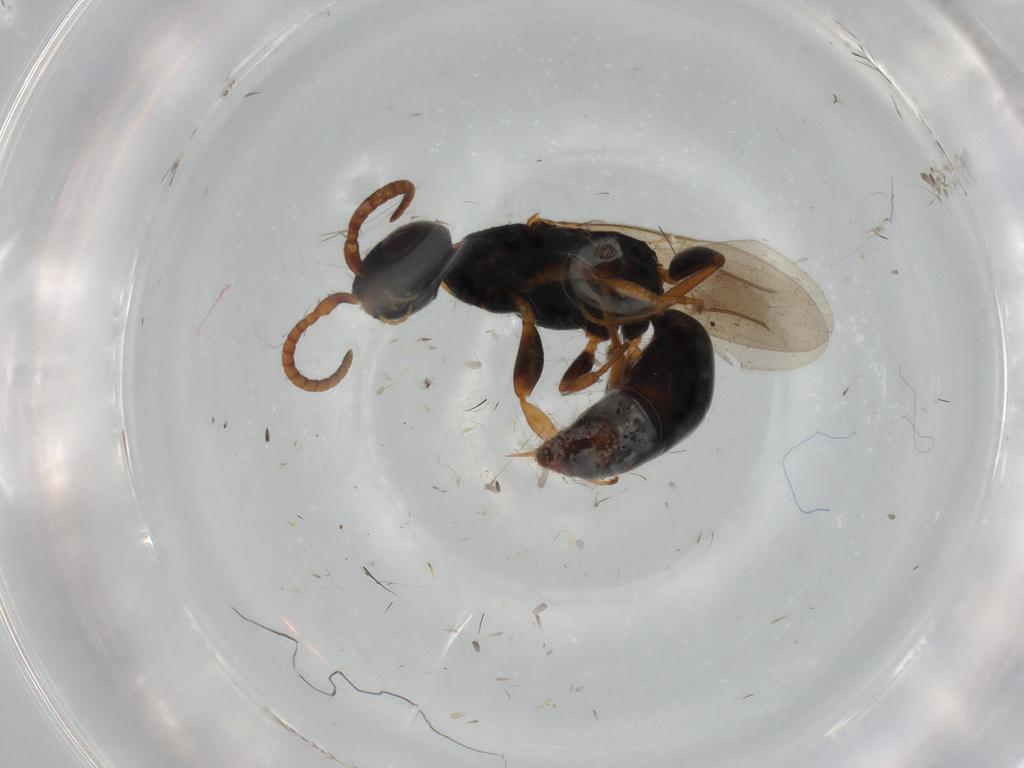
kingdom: Animalia
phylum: Arthropoda
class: Insecta
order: Hymenoptera
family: Bethylidae
